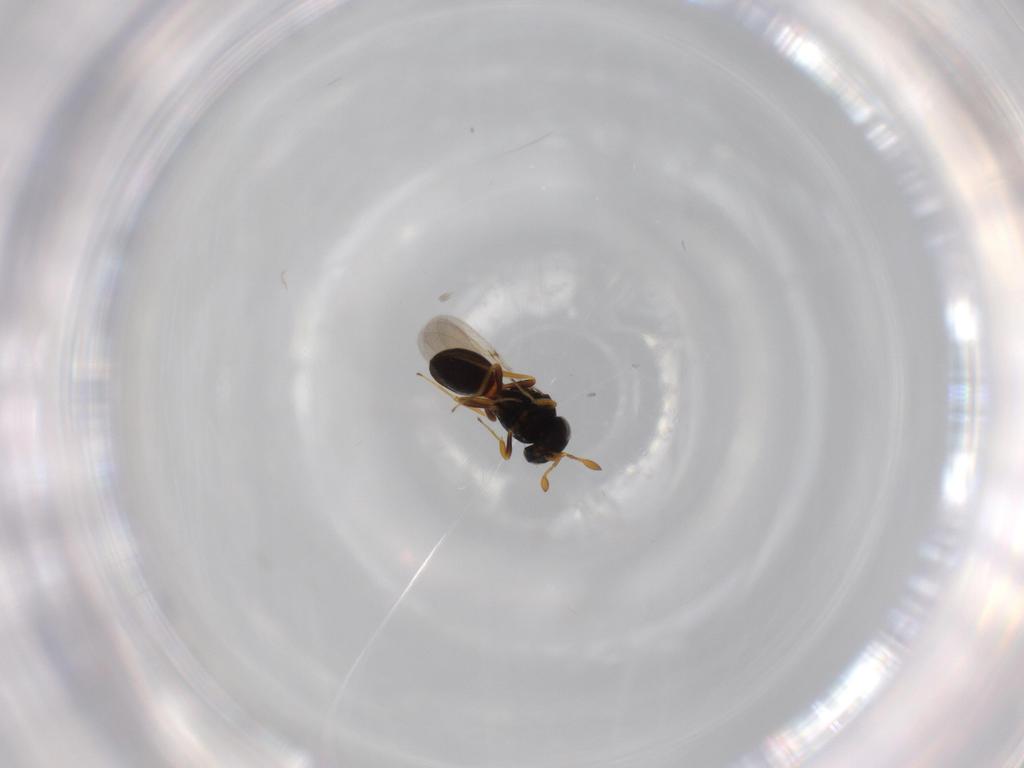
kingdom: Animalia
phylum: Arthropoda
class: Insecta
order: Hymenoptera
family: Scelionidae
